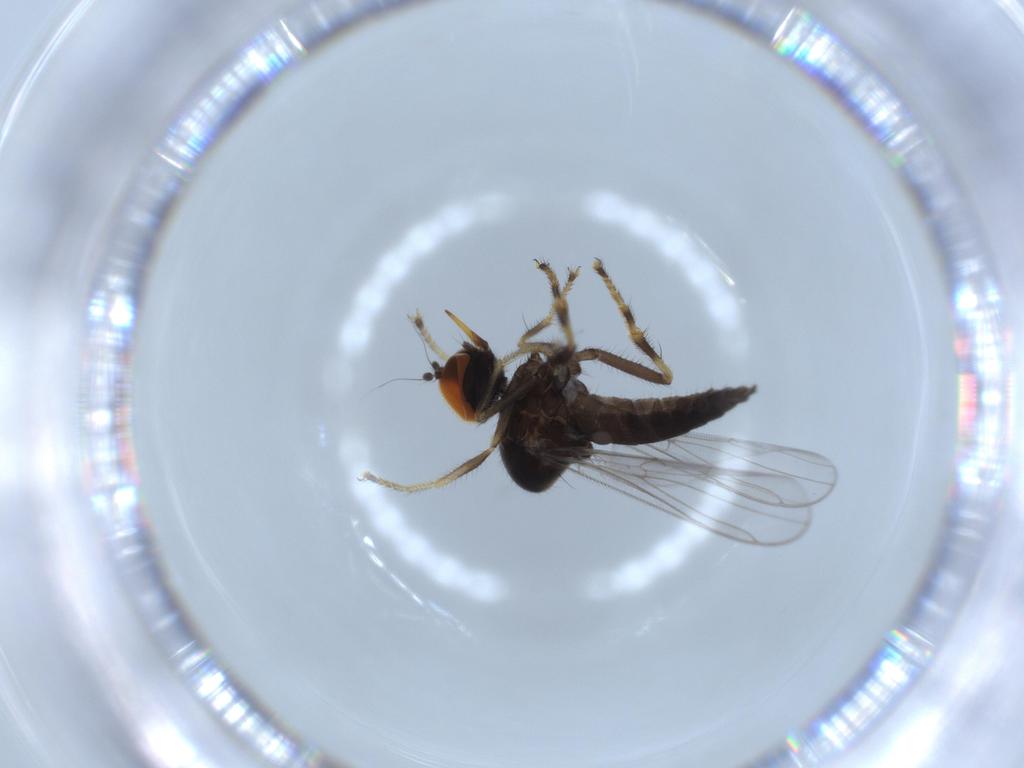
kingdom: Animalia
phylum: Arthropoda
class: Insecta
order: Diptera
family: Hybotidae
